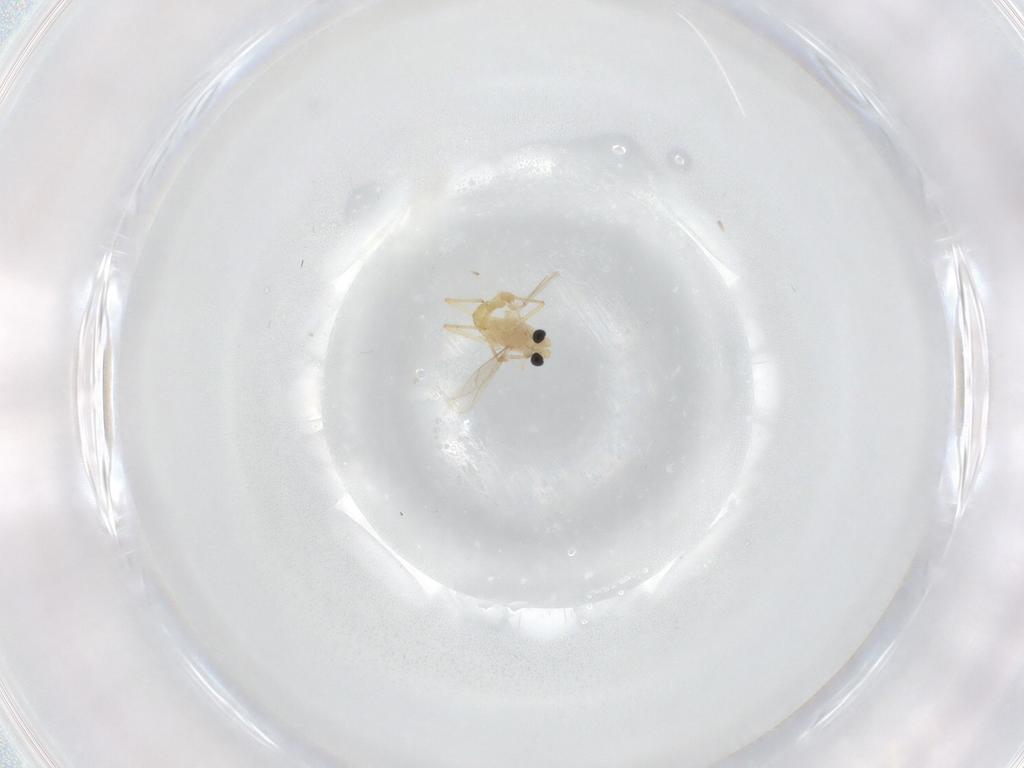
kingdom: Animalia
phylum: Arthropoda
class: Insecta
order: Diptera
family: Chironomidae
